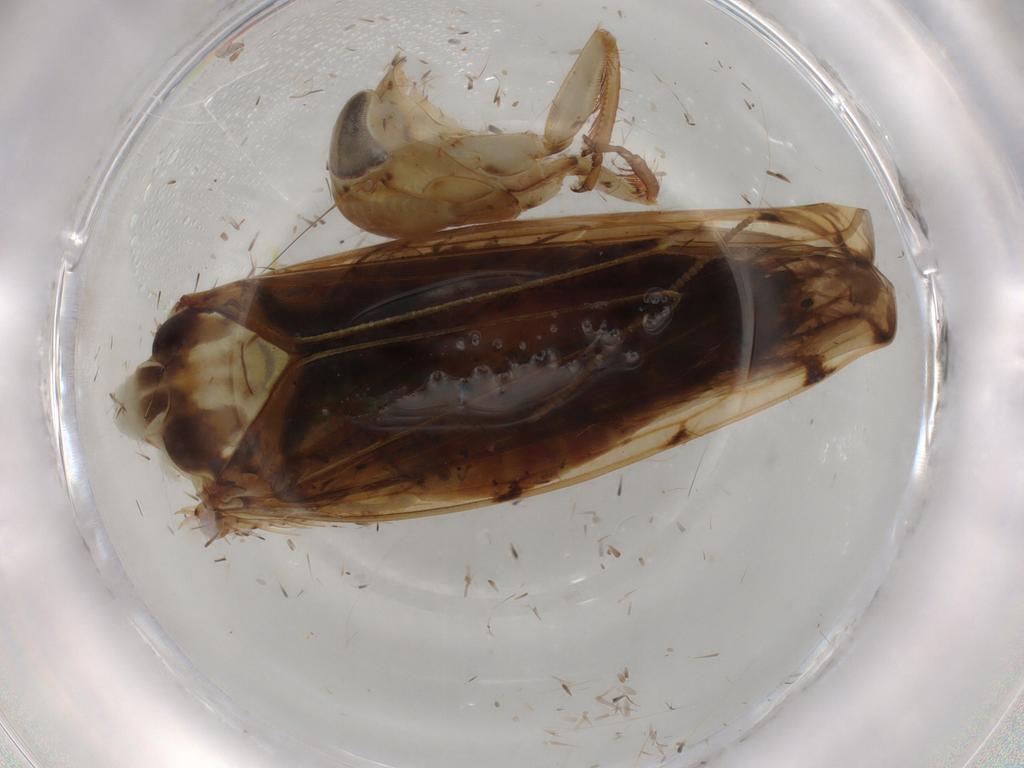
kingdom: Animalia
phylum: Arthropoda
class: Insecta
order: Hemiptera
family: Cicadellidae
